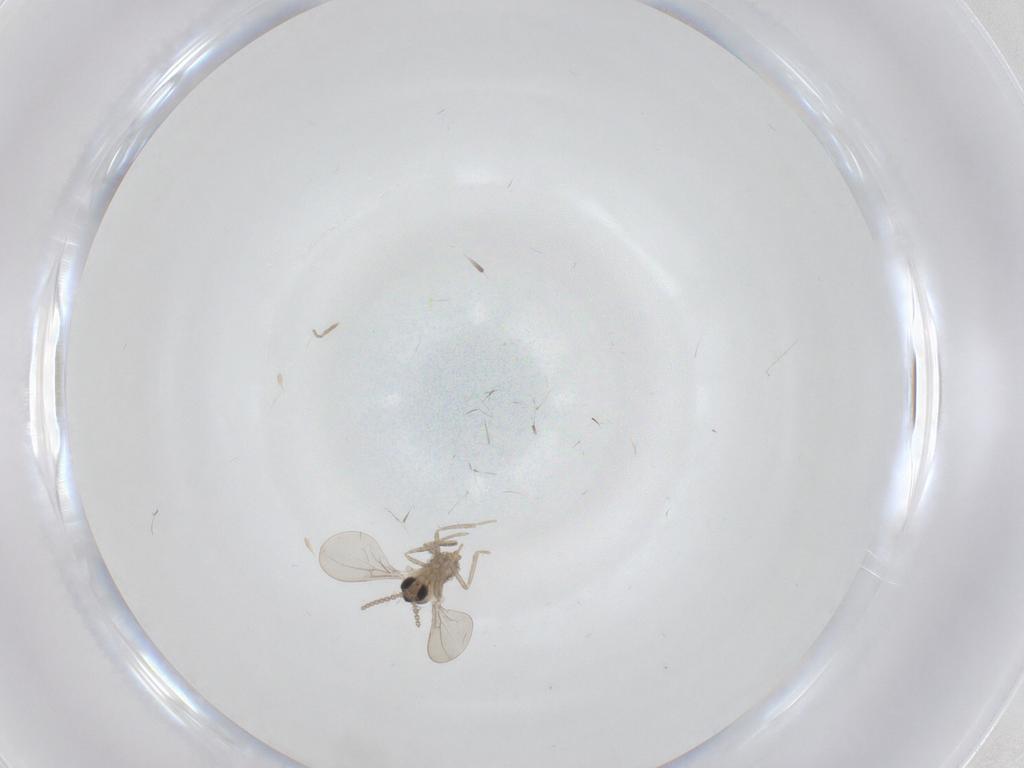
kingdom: Animalia
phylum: Arthropoda
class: Insecta
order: Diptera
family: Cecidomyiidae
